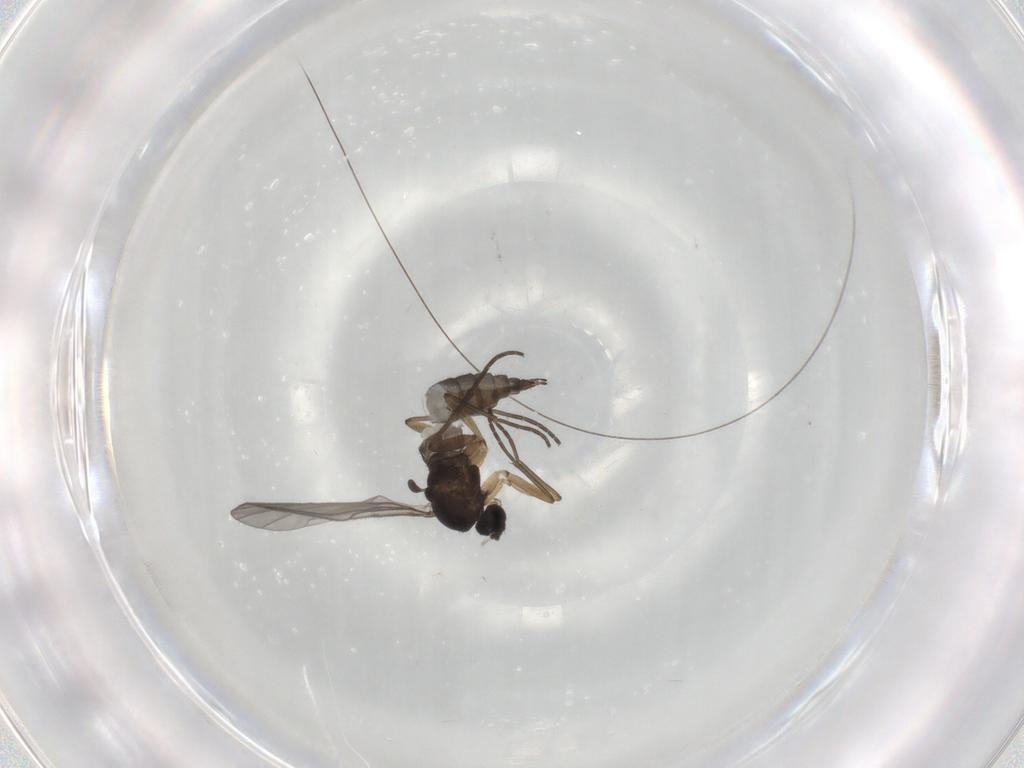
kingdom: Animalia
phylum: Arthropoda
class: Insecta
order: Diptera
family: Sciaridae
